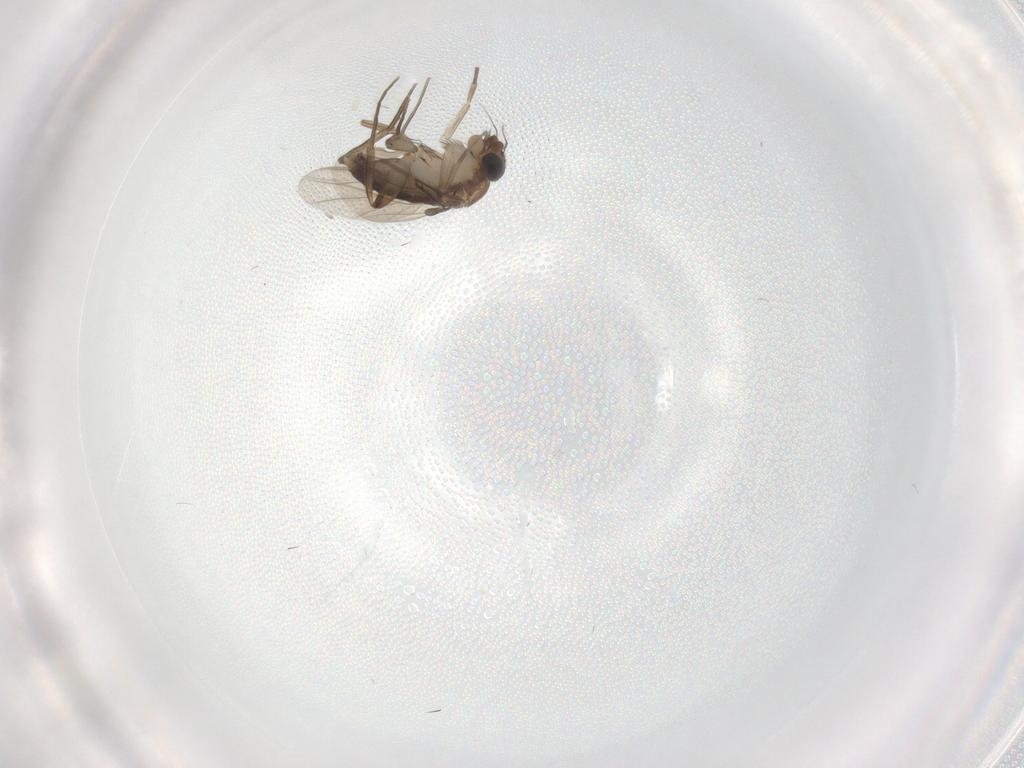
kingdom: Animalia
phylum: Arthropoda
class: Insecta
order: Diptera
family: Phoridae
